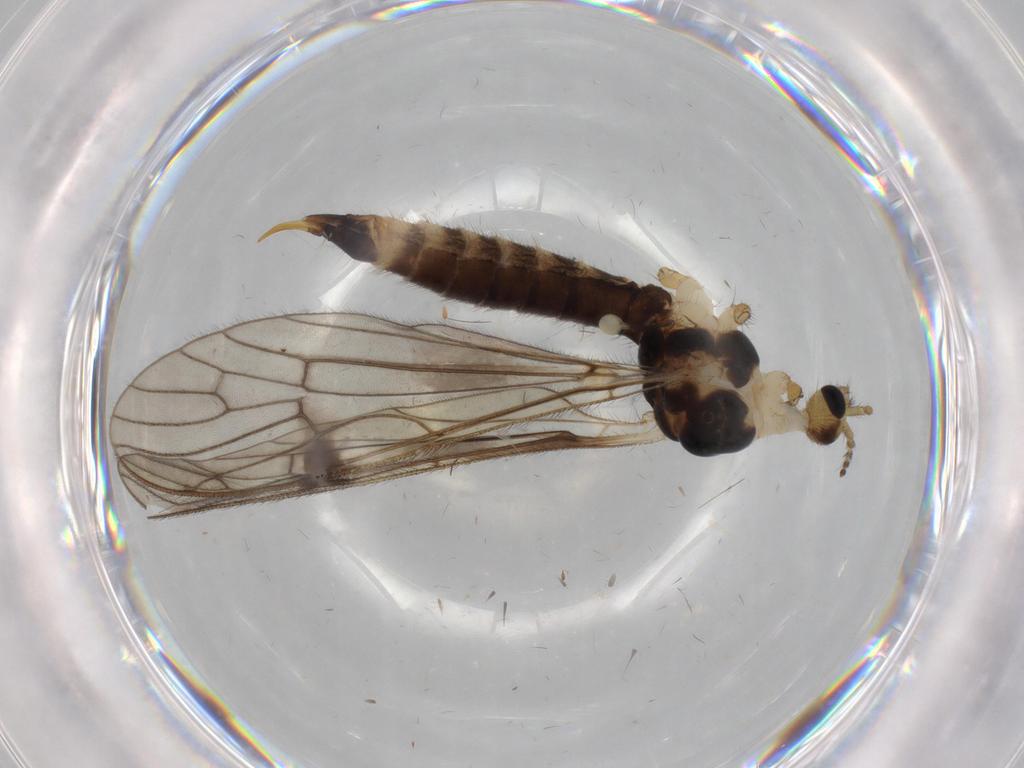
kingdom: Animalia
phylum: Arthropoda
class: Insecta
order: Diptera
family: Limoniidae
